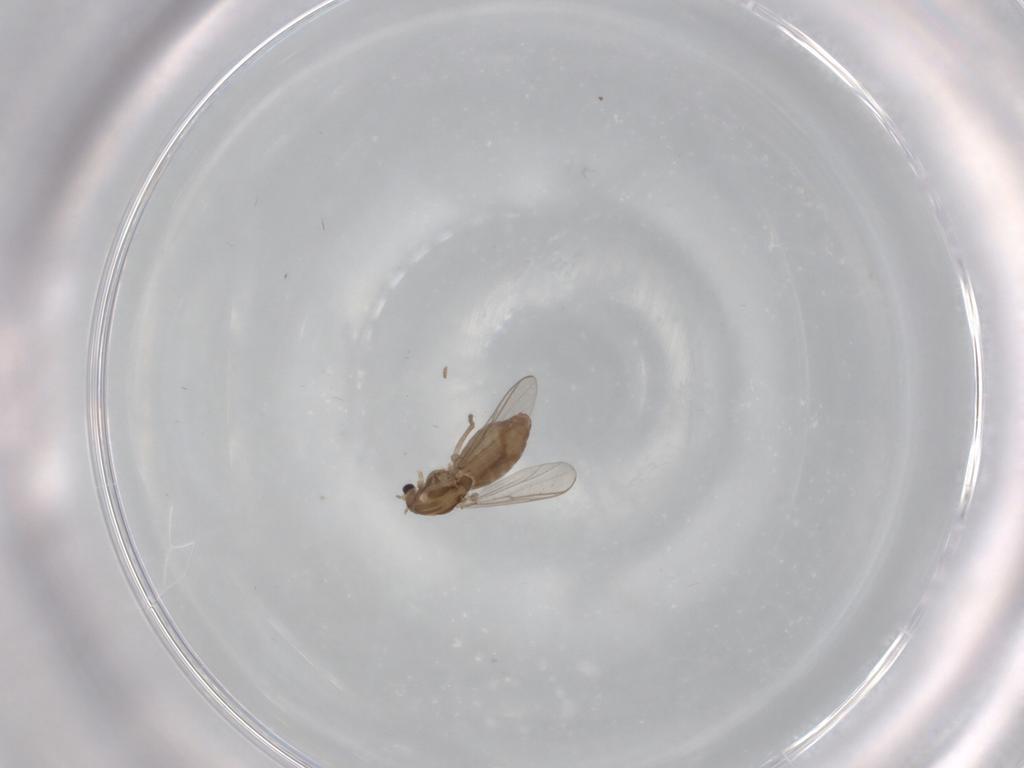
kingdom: Animalia
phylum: Arthropoda
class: Insecta
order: Diptera
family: Chironomidae
